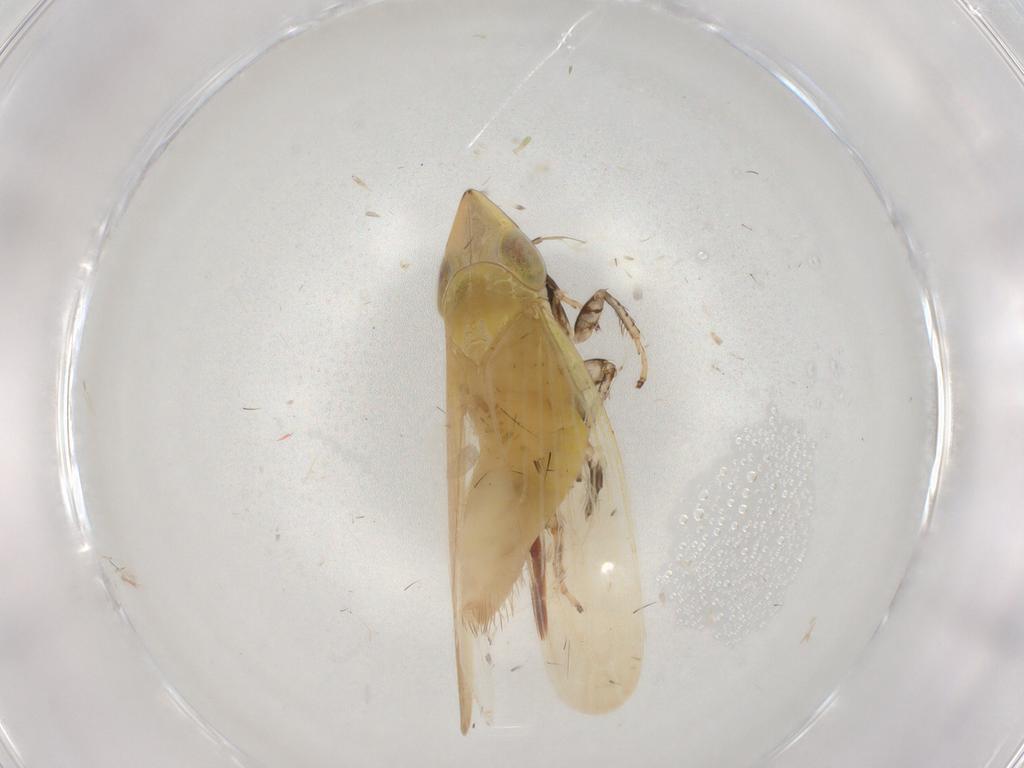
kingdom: Animalia
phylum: Arthropoda
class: Insecta
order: Hemiptera
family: Cicadellidae
